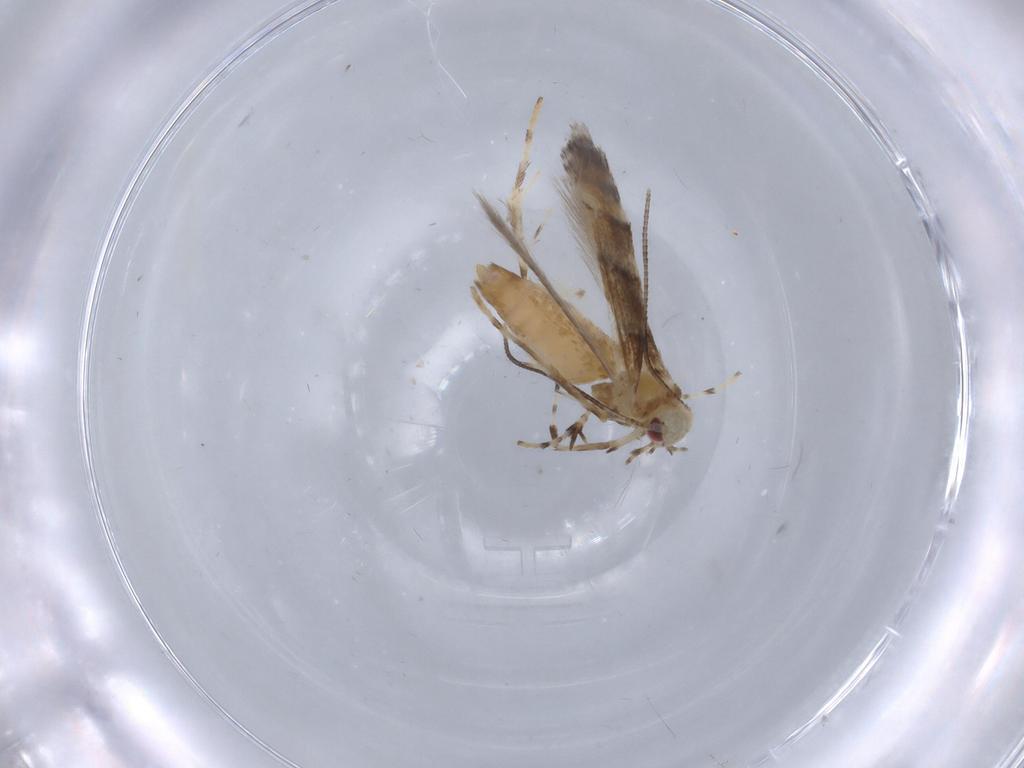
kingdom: Animalia
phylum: Arthropoda
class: Insecta
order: Lepidoptera
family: Gracillariidae
